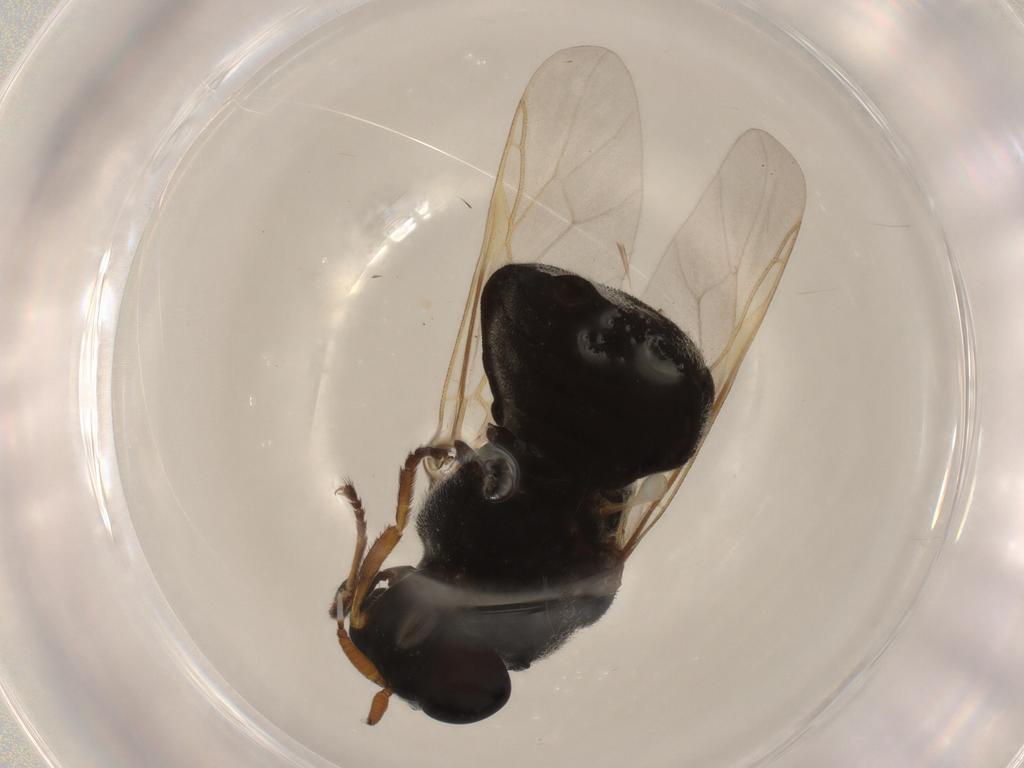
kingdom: Animalia
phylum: Arthropoda
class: Insecta
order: Diptera
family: Stratiomyidae
